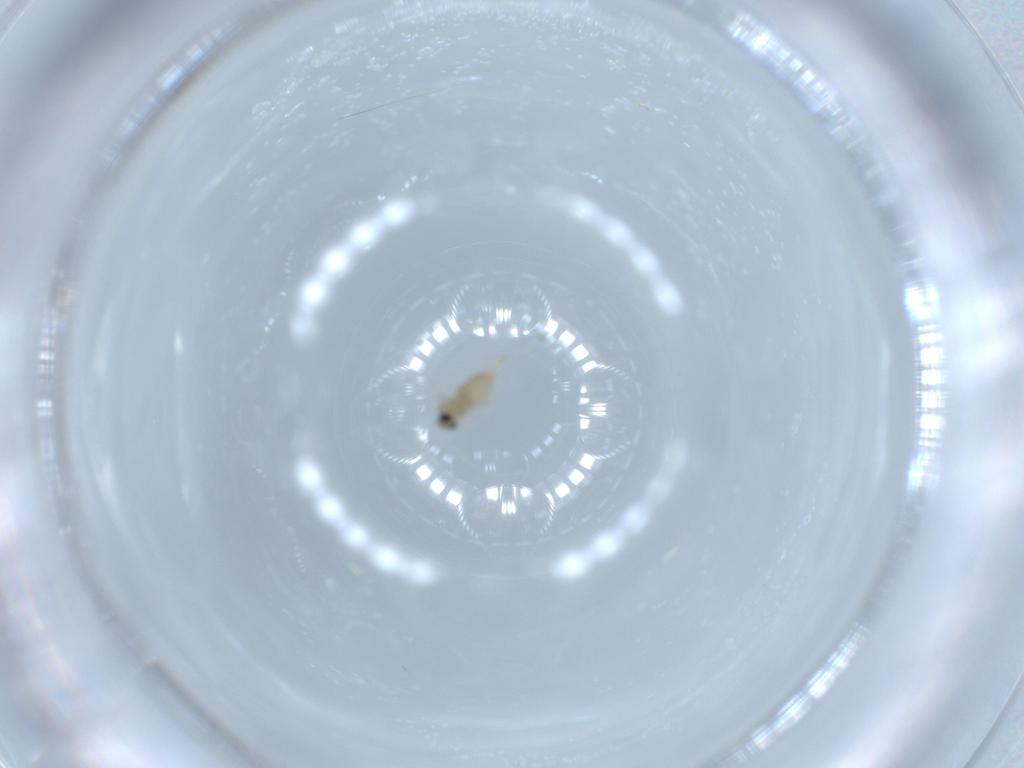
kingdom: Animalia
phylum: Arthropoda
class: Insecta
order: Diptera
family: Cecidomyiidae
